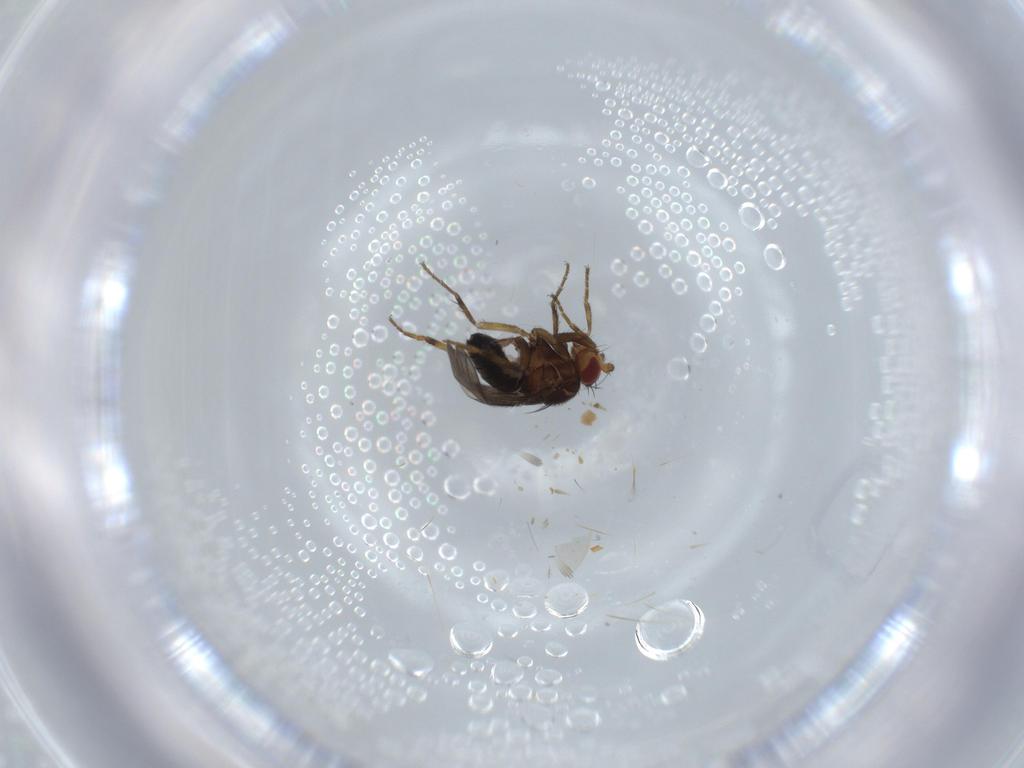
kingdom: Animalia
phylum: Arthropoda
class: Insecta
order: Diptera
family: Sphaeroceridae
